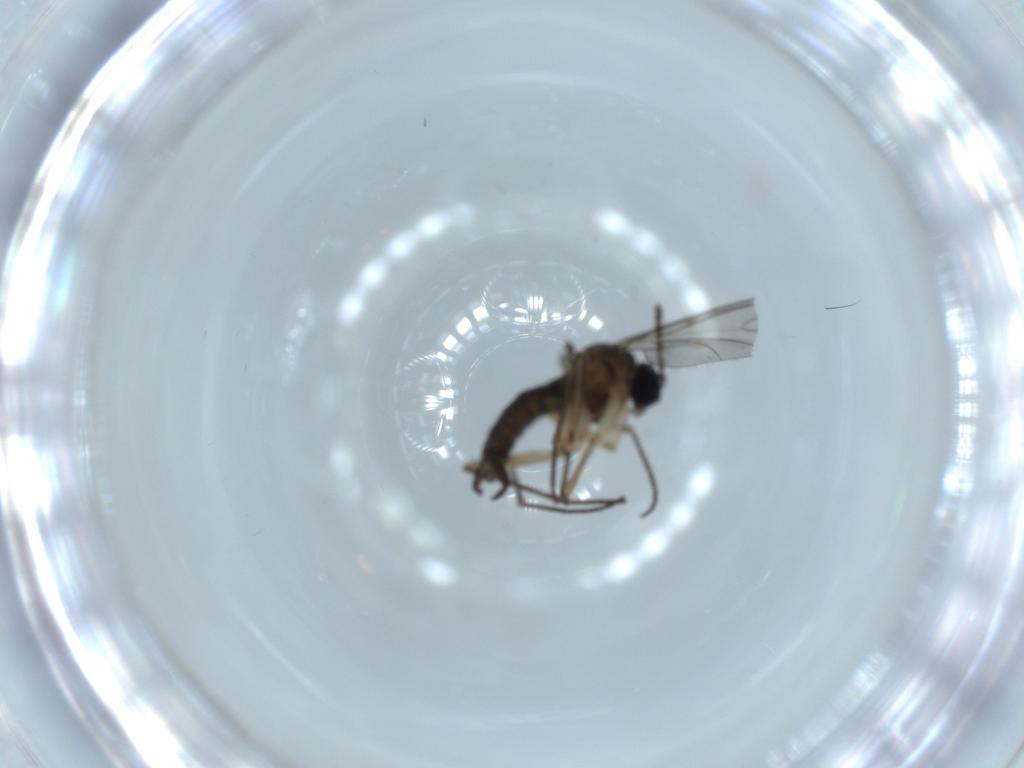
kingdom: Animalia
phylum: Arthropoda
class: Insecta
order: Diptera
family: Sciaridae
